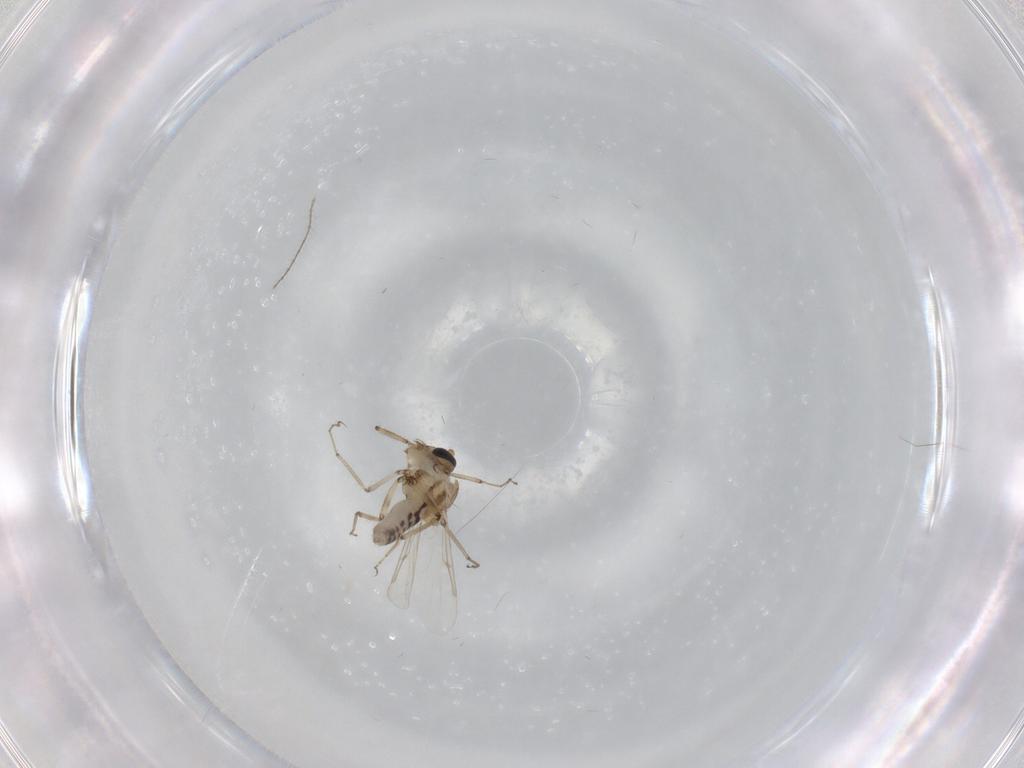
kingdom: Animalia
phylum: Arthropoda
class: Insecta
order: Diptera
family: Ceratopogonidae
